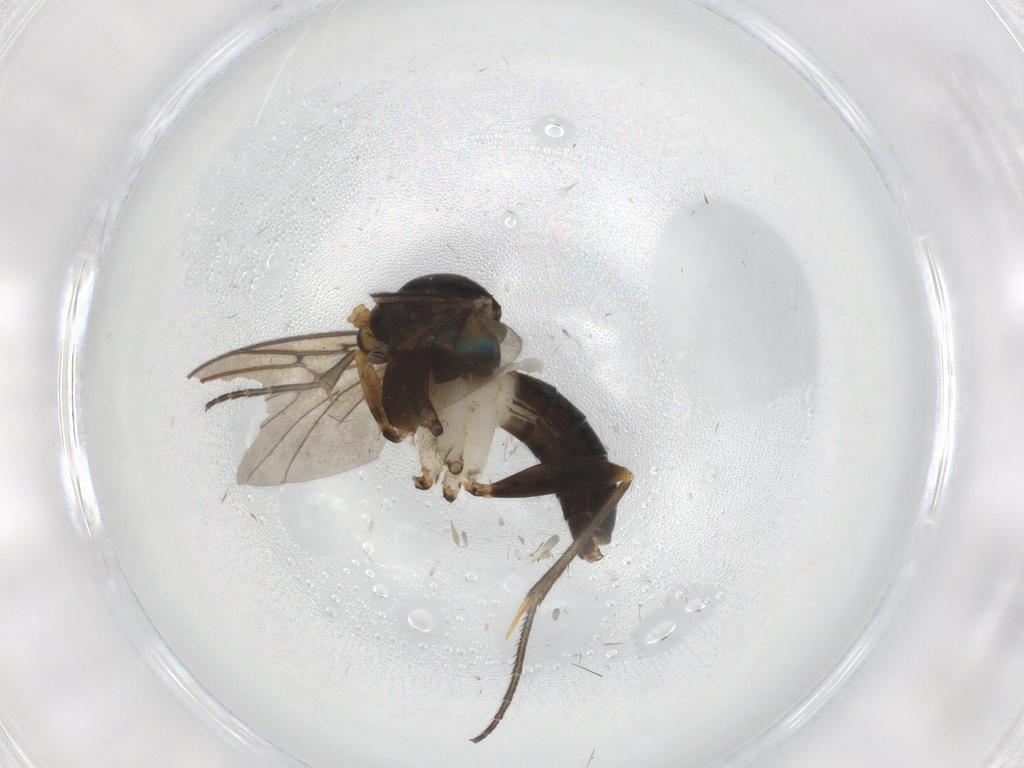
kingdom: Animalia
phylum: Arthropoda
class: Insecta
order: Diptera
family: Ceratopogonidae
